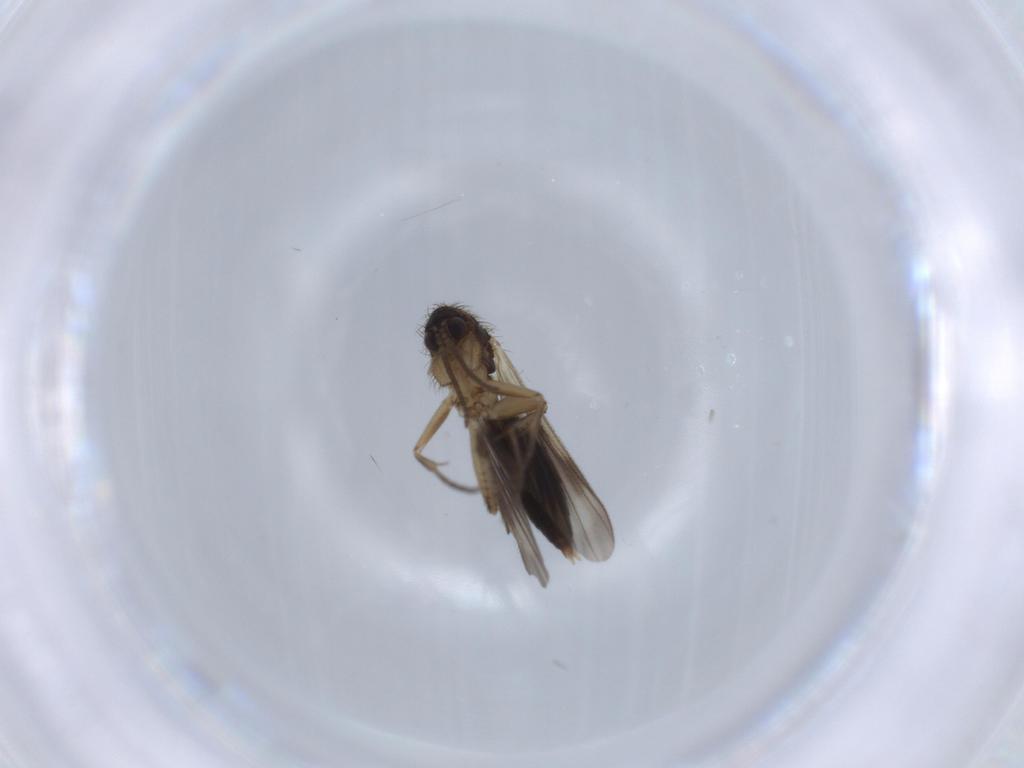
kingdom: Animalia
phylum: Arthropoda
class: Insecta
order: Diptera
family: Mycetophilidae
